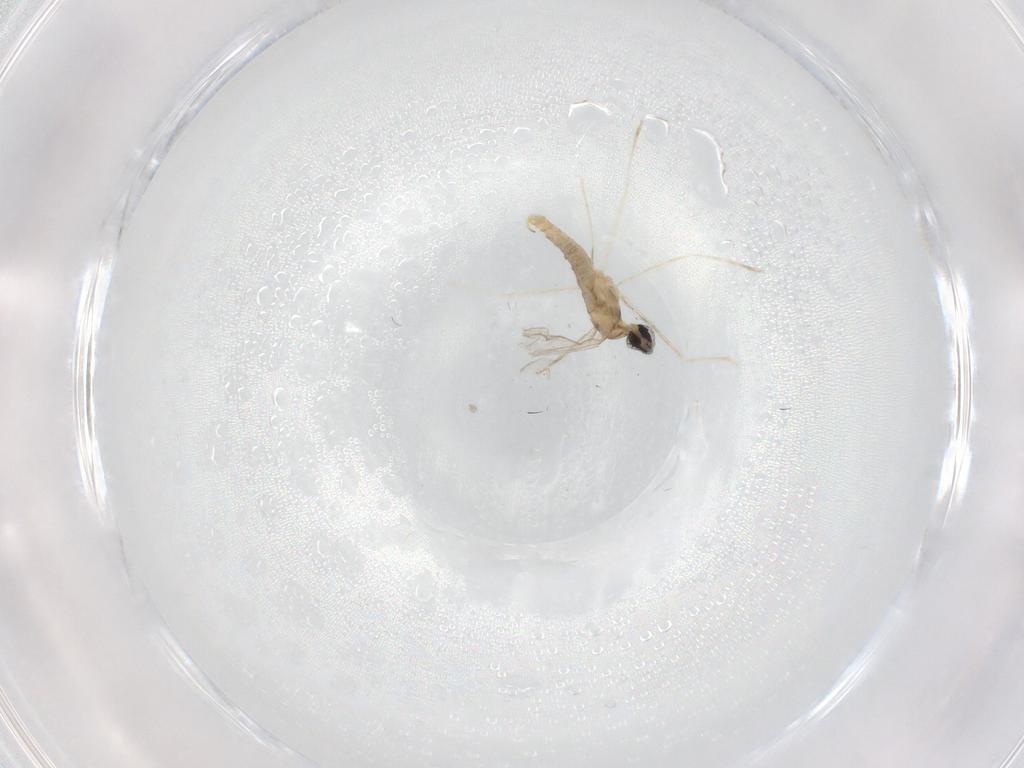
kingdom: Animalia
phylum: Arthropoda
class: Insecta
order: Diptera
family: Cecidomyiidae
